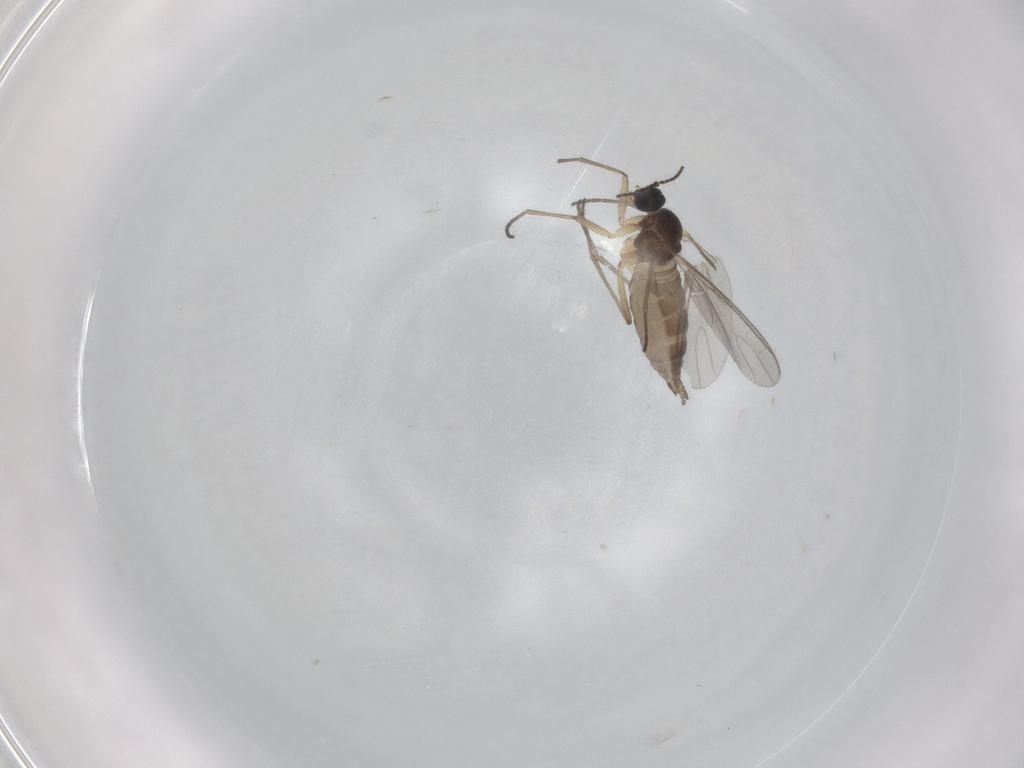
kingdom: Animalia
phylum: Arthropoda
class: Insecta
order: Diptera
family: Sciaridae
